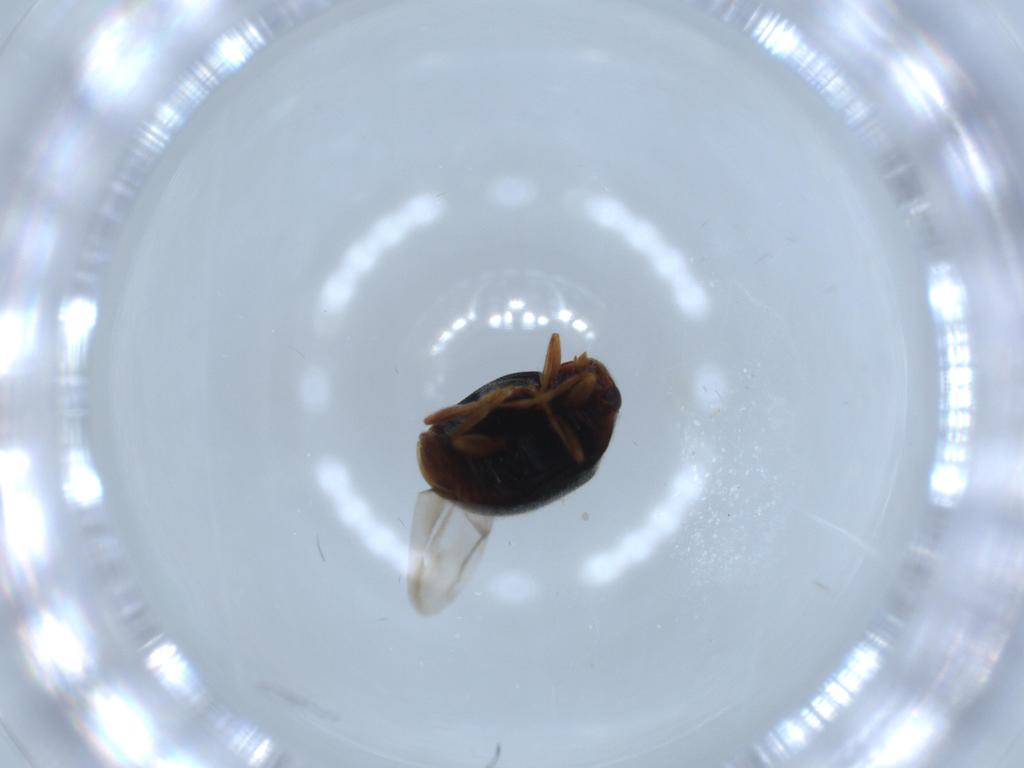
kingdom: Animalia
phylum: Arthropoda
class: Insecta
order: Coleoptera
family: Coccinellidae
